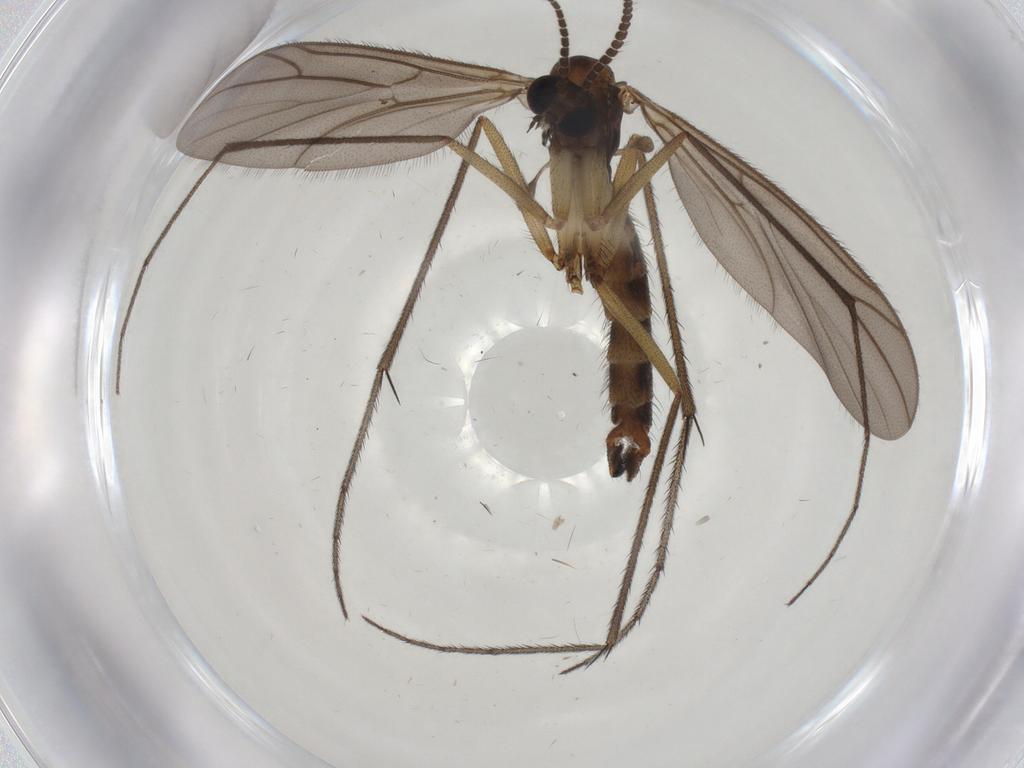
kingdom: Animalia
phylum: Arthropoda
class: Insecta
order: Diptera
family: Ditomyiidae
